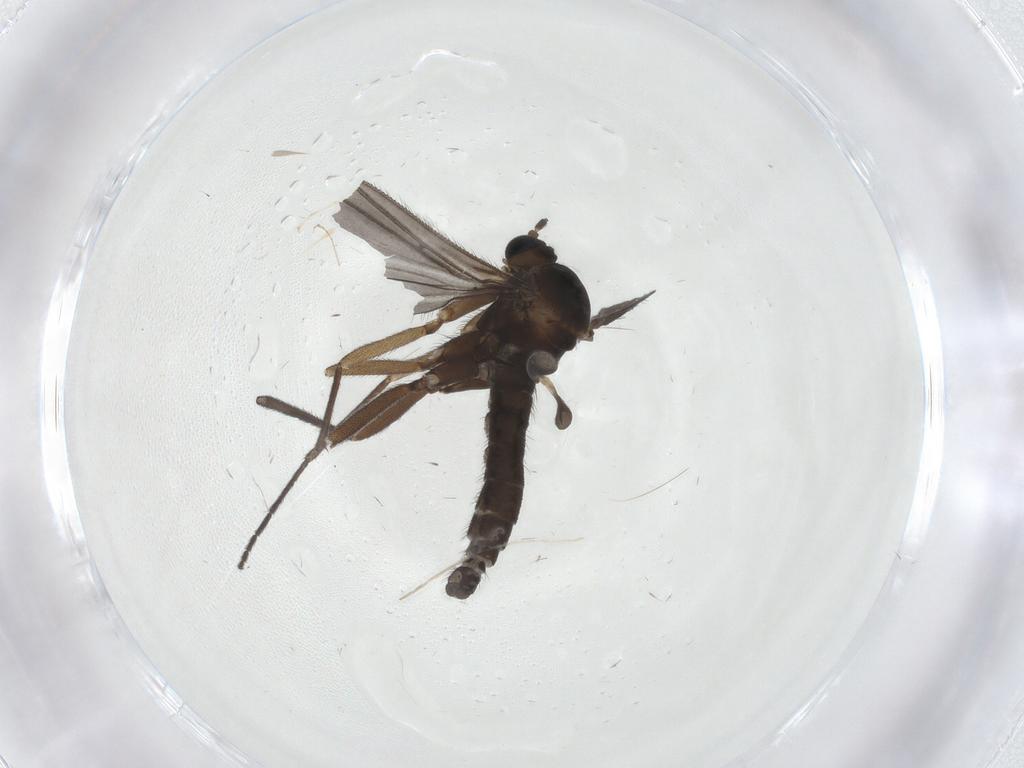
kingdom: Animalia
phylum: Arthropoda
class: Insecta
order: Diptera
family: Sciaridae
